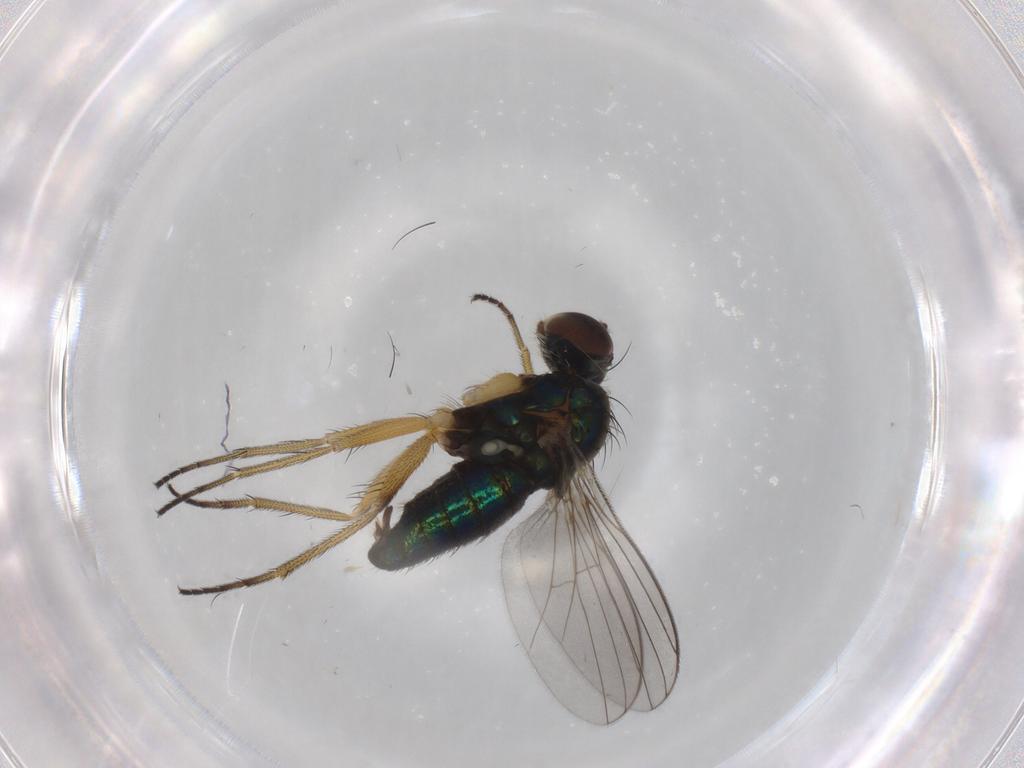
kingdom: Animalia
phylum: Arthropoda
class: Insecta
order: Diptera
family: Dolichopodidae
